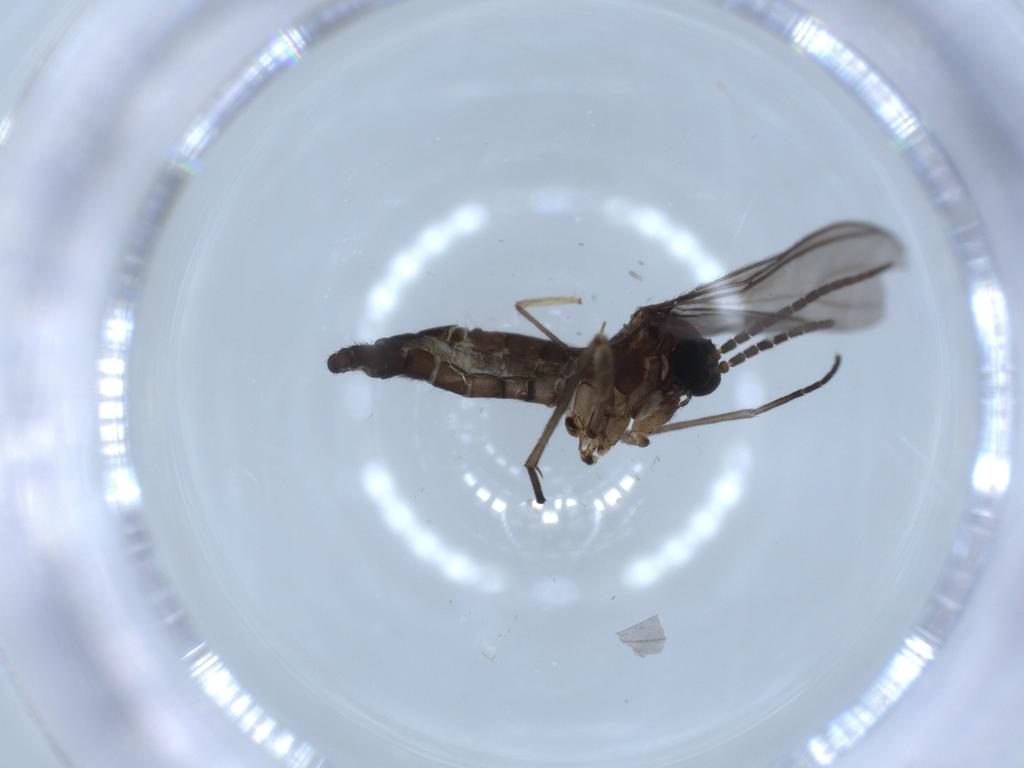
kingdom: Animalia
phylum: Arthropoda
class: Insecta
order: Diptera
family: Sciaridae
